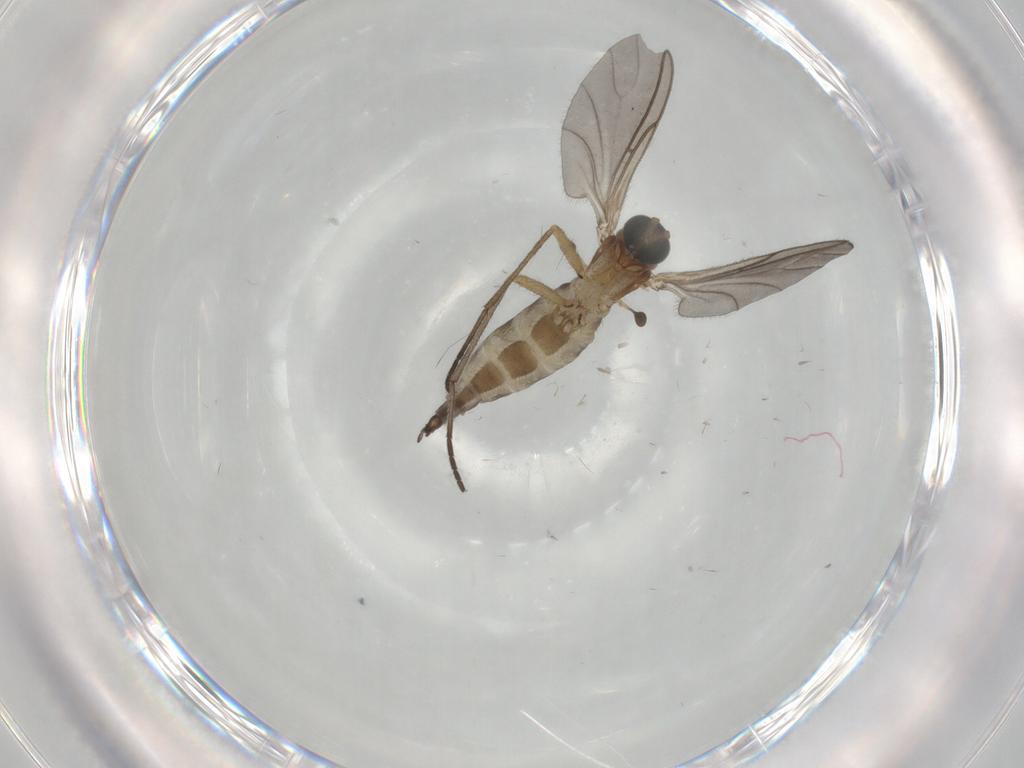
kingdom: Animalia
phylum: Arthropoda
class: Insecta
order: Diptera
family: Sciaridae
